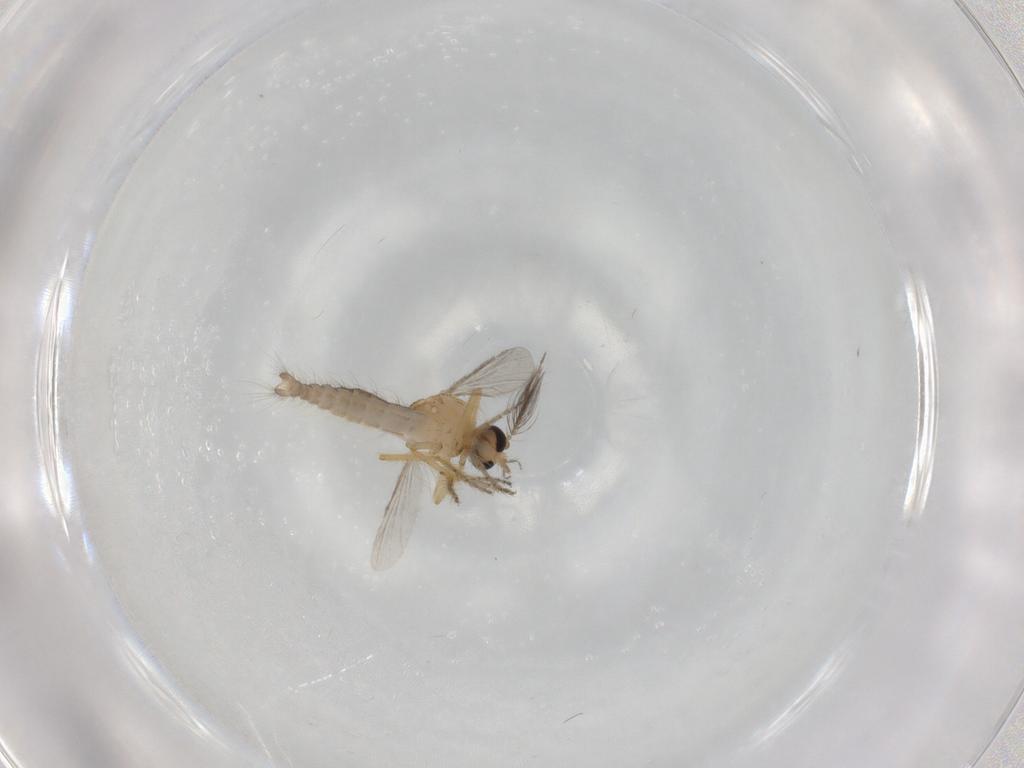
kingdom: Animalia
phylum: Arthropoda
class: Insecta
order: Diptera
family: Ceratopogonidae
